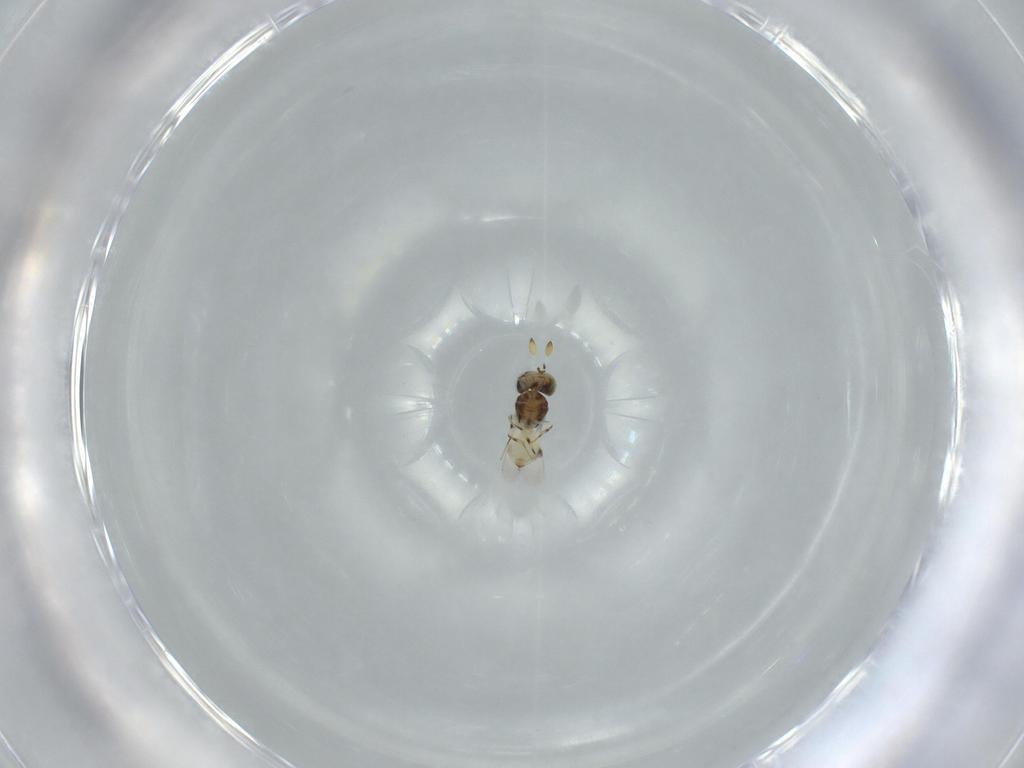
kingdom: Animalia
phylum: Arthropoda
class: Insecta
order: Hymenoptera
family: Scelionidae
